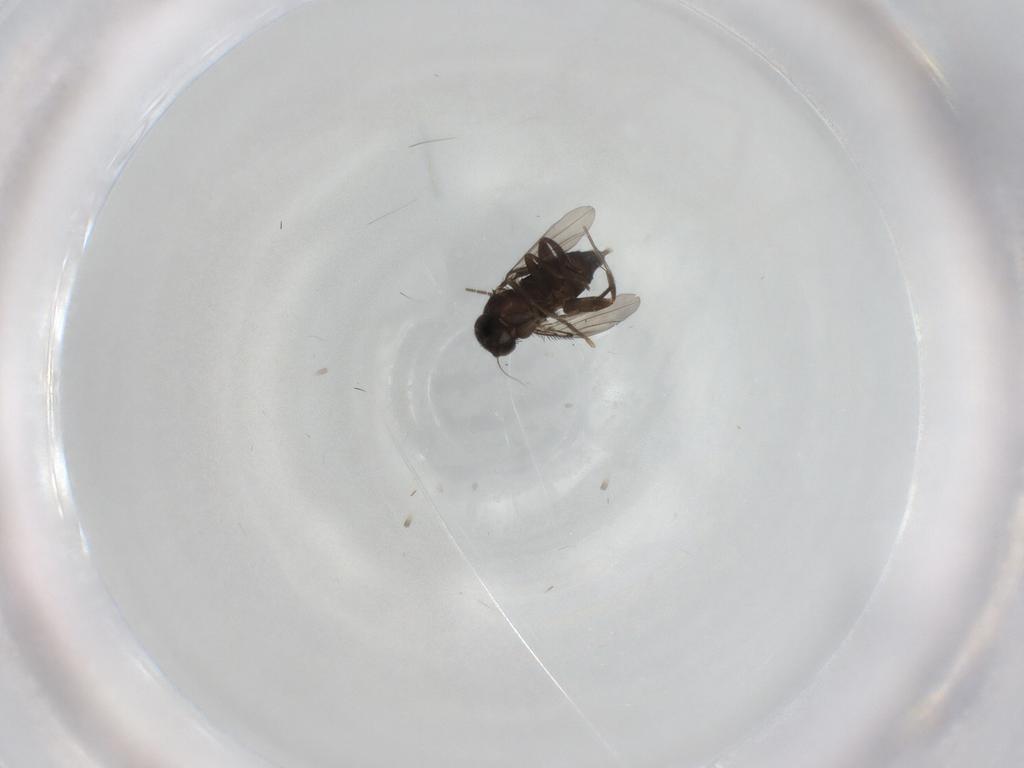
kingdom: Animalia
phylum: Arthropoda
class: Insecta
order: Diptera
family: Phoridae
